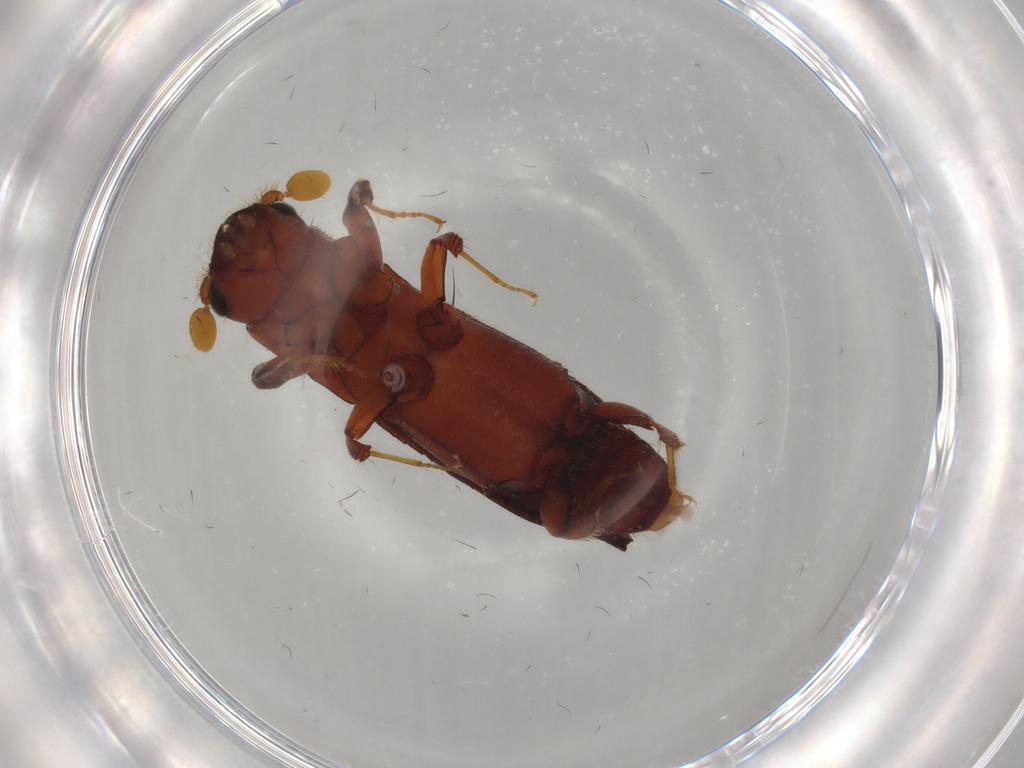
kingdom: Animalia
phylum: Arthropoda
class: Insecta
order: Coleoptera
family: Curculionidae
